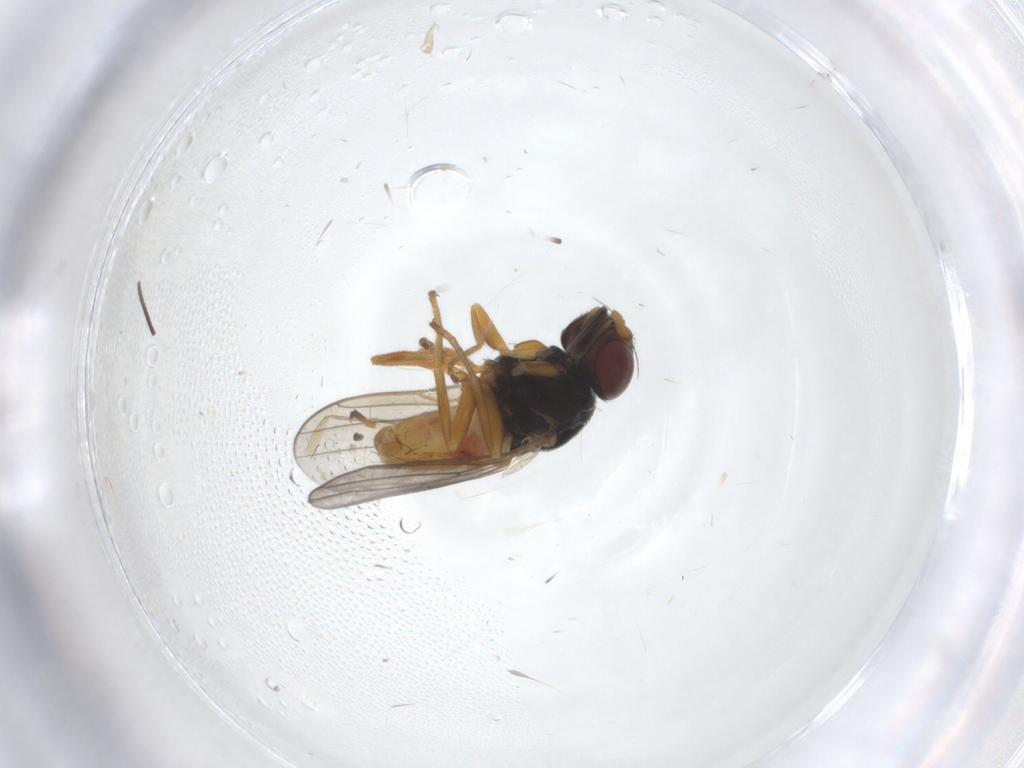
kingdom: Animalia
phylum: Arthropoda
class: Insecta
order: Diptera
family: Chloropidae
